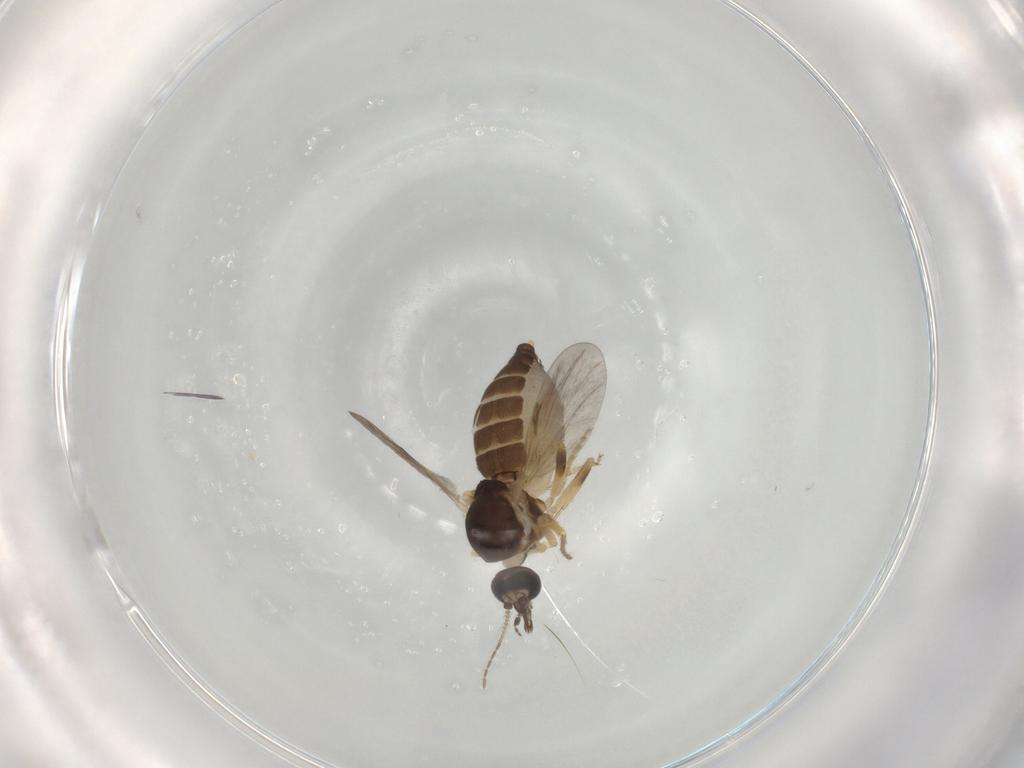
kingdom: Animalia
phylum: Arthropoda
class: Insecta
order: Diptera
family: Ceratopogonidae
